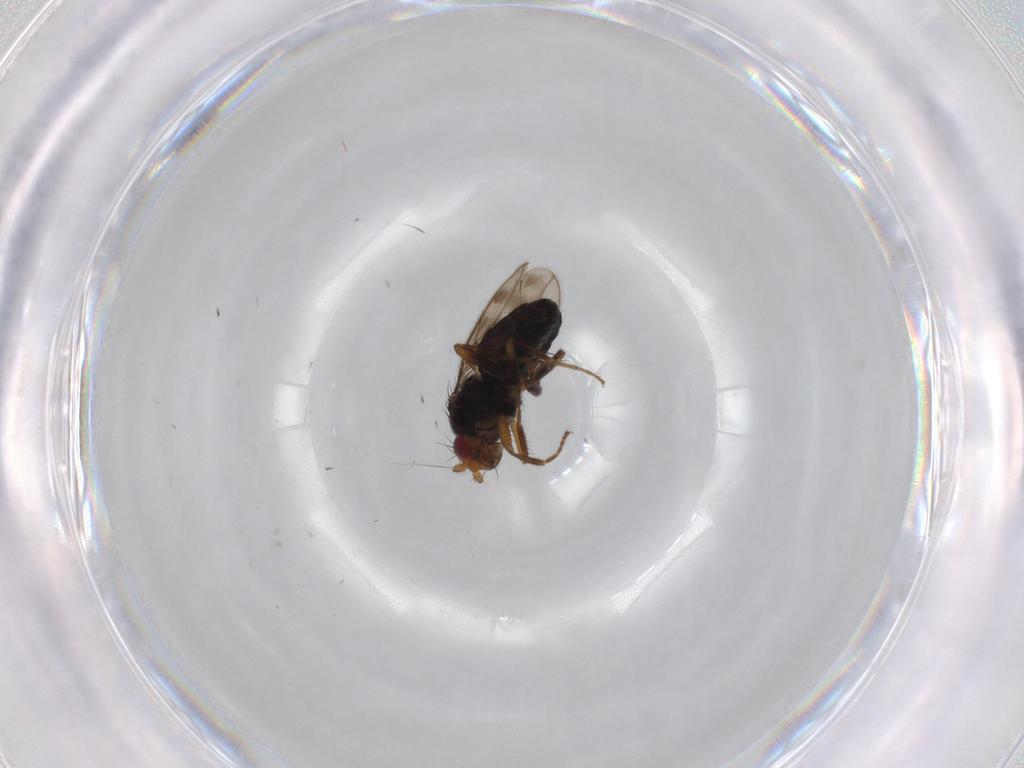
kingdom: Animalia
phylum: Arthropoda
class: Insecta
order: Diptera
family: Sphaeroceridae
